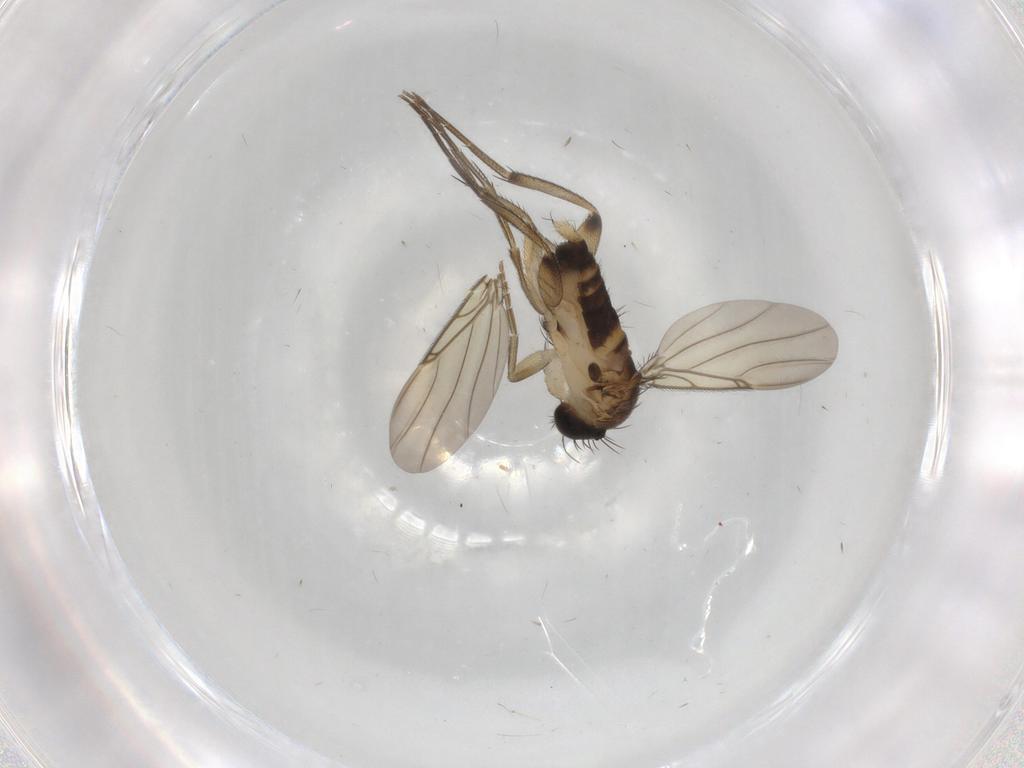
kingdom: Animalia
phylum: Arthropoda
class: Insecta
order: Diptera
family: Phoridae
